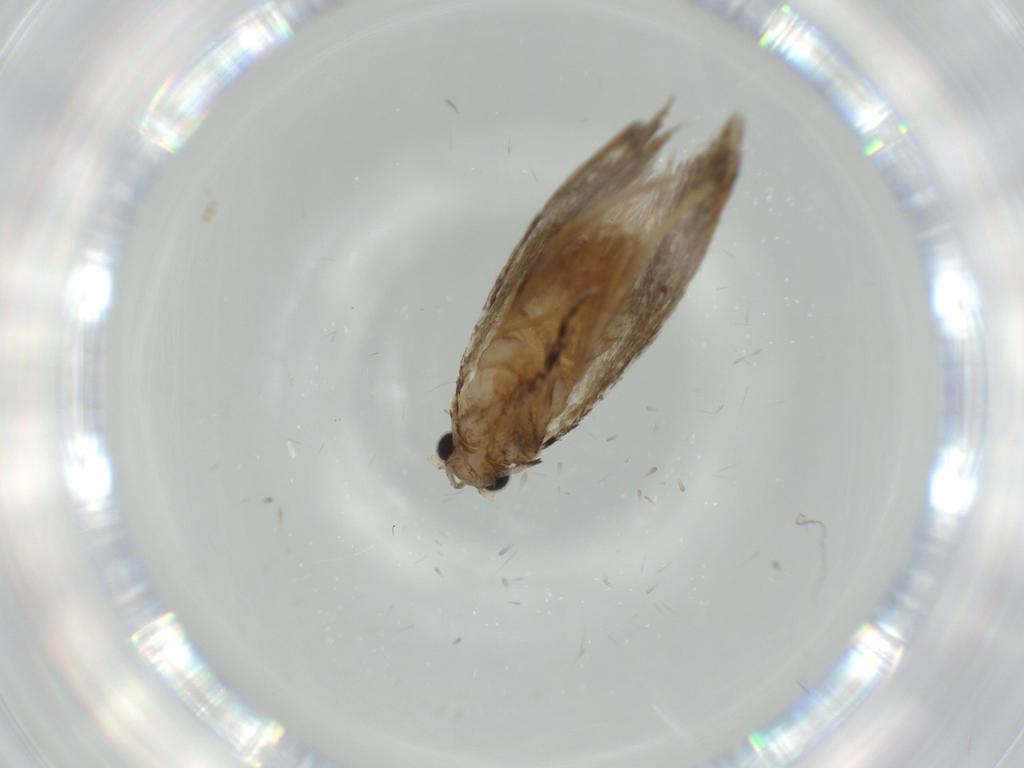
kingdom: Animalia
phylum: Arthropoda
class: Insecta
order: Lepidoptera
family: Tineidae
